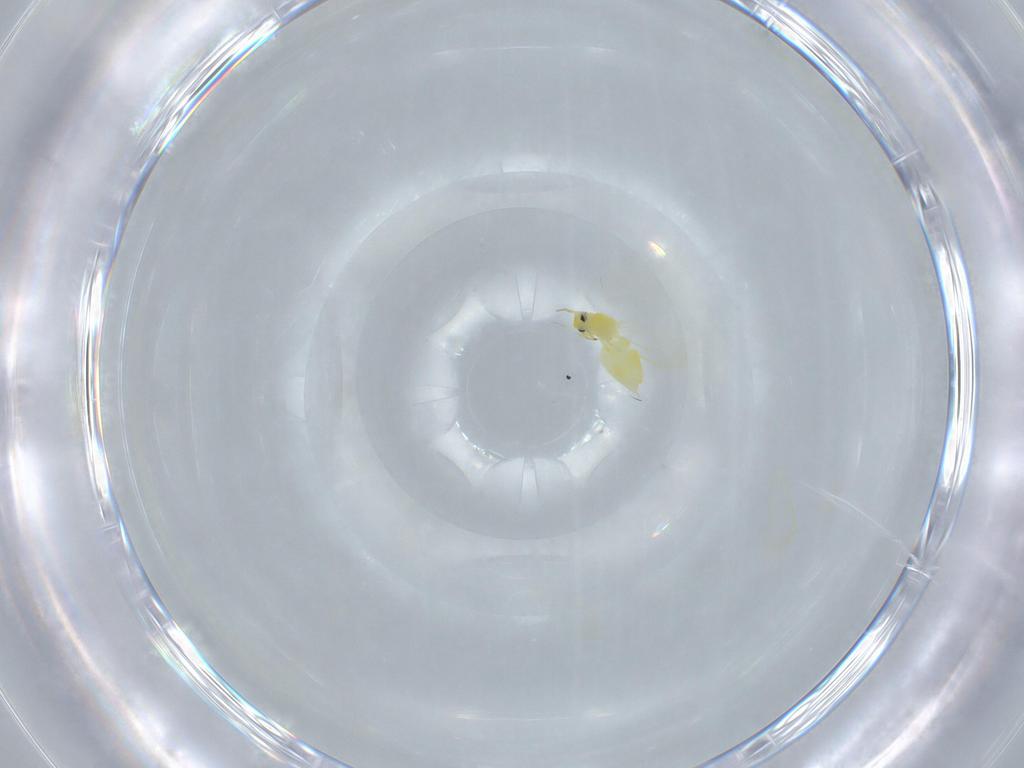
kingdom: Animalia
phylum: Arthropoda
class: Insecta
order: Hemiptera
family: Aleyrodidae
